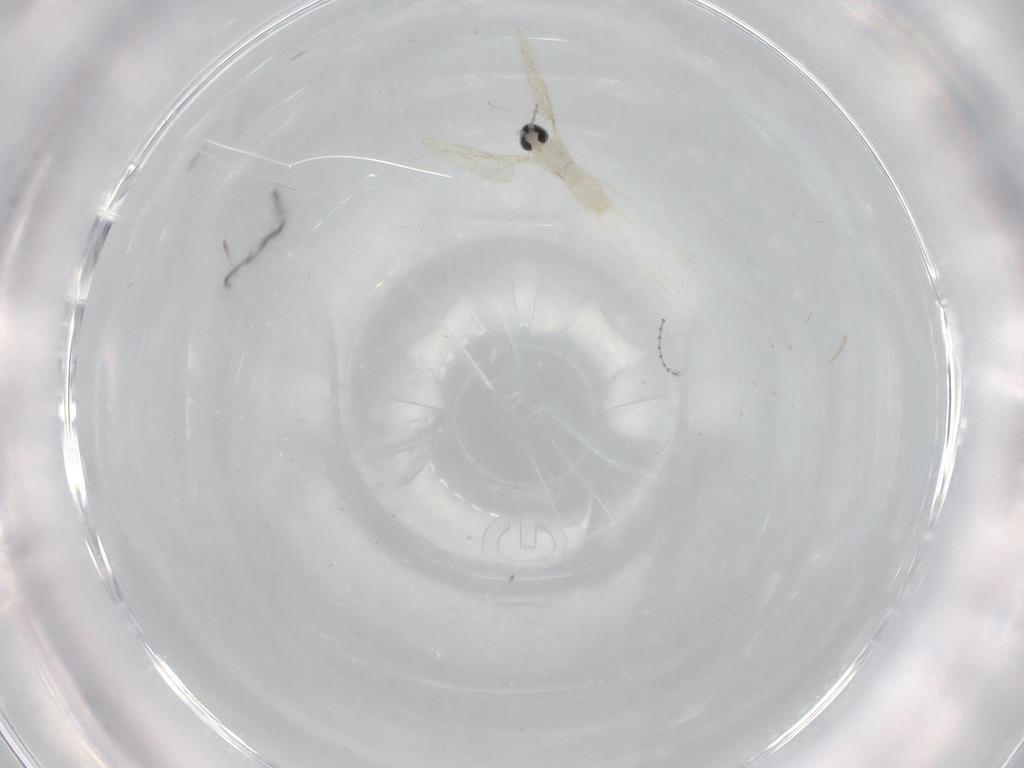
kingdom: Animalia
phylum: Arthropoda
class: Insecta
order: Diptera
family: Cecidomyiidae
